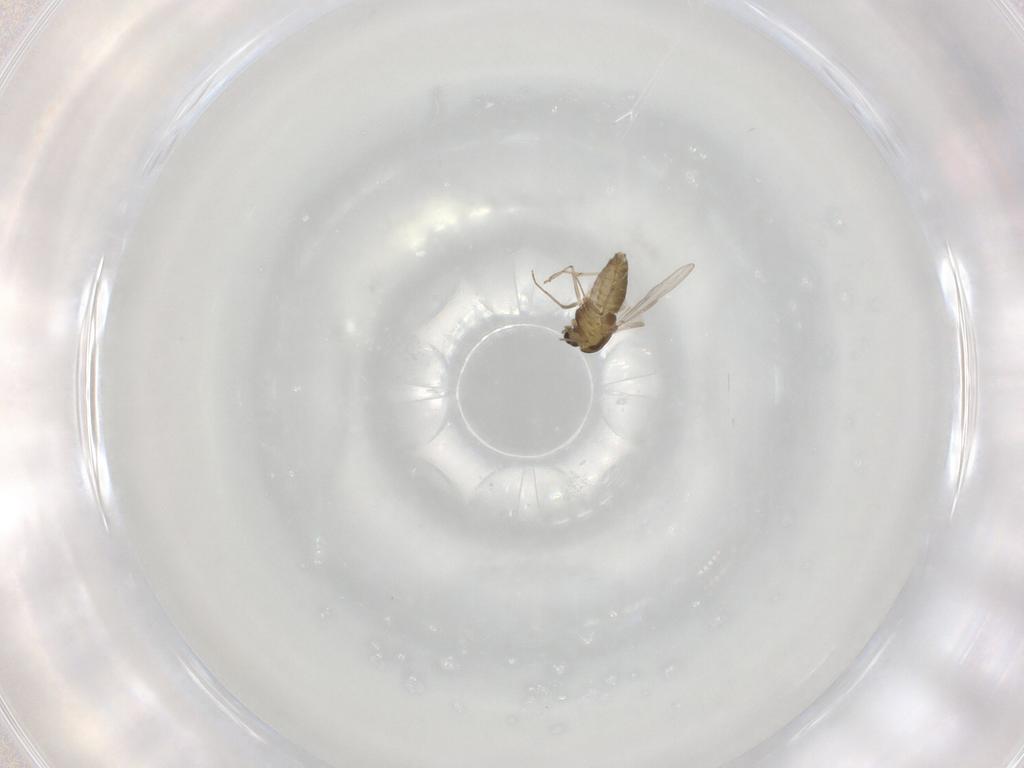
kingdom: Animalia
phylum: Arthropoda
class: Insecta
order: Diptera
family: Chironomidae
